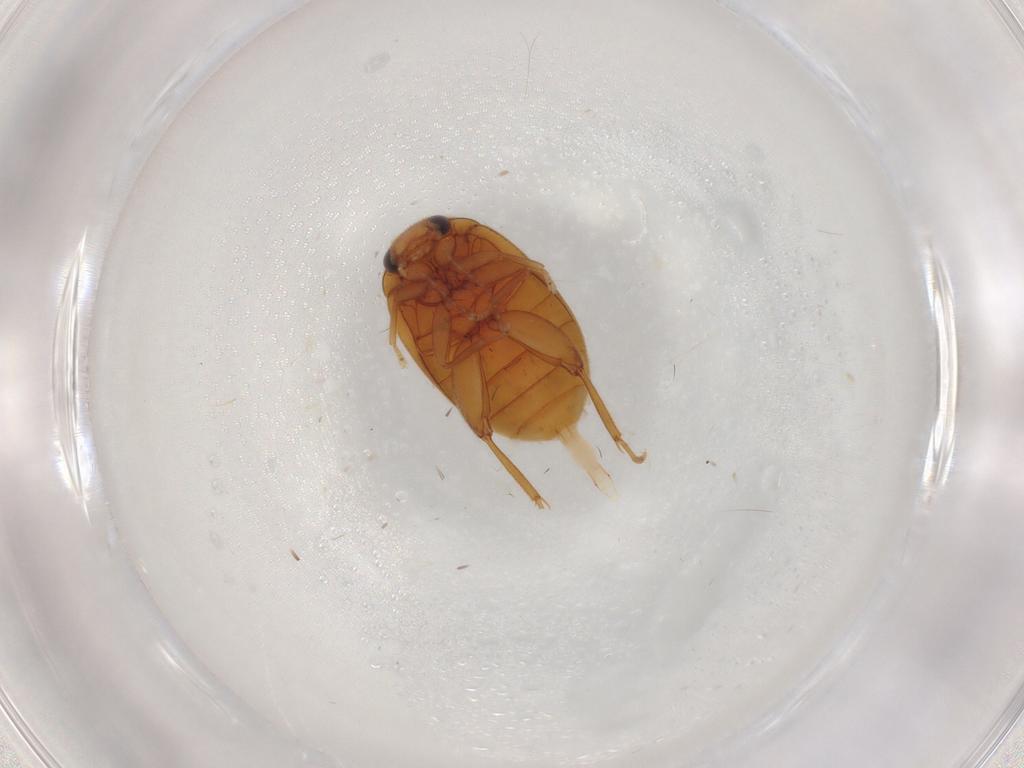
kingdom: Animalia
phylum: Arthropoda
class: Insecta
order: Coleoptera
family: Scirtidae
